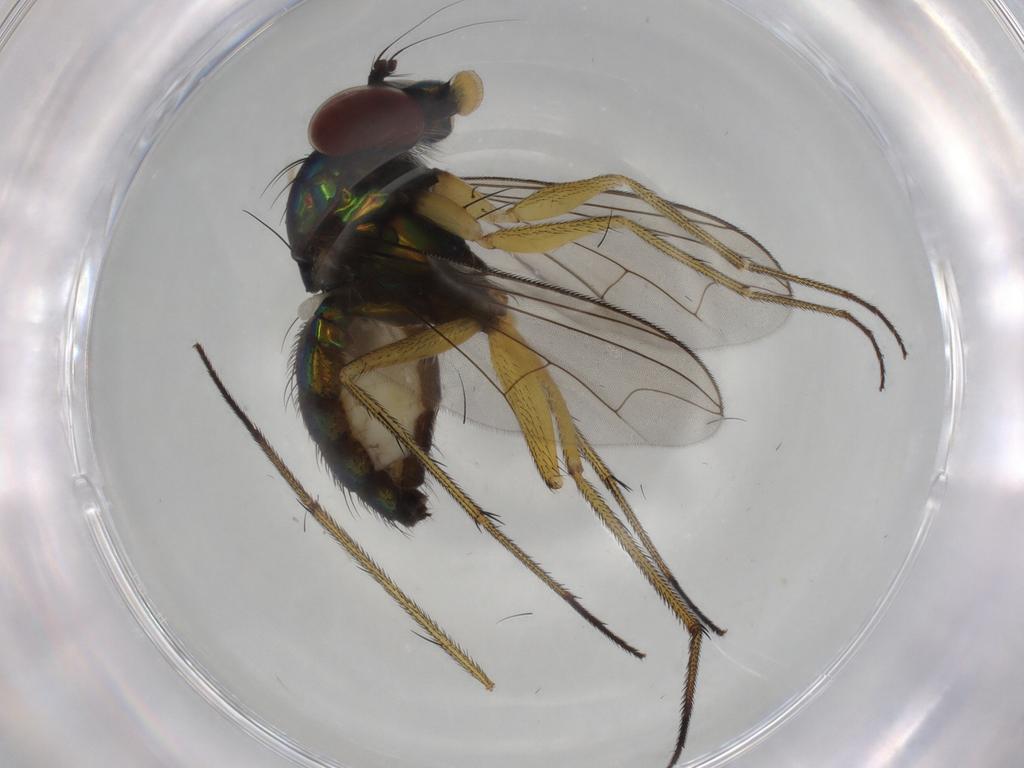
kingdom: Animalia
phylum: Arthropoda
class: Insecta
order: Diptera
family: Dolichopodidae
